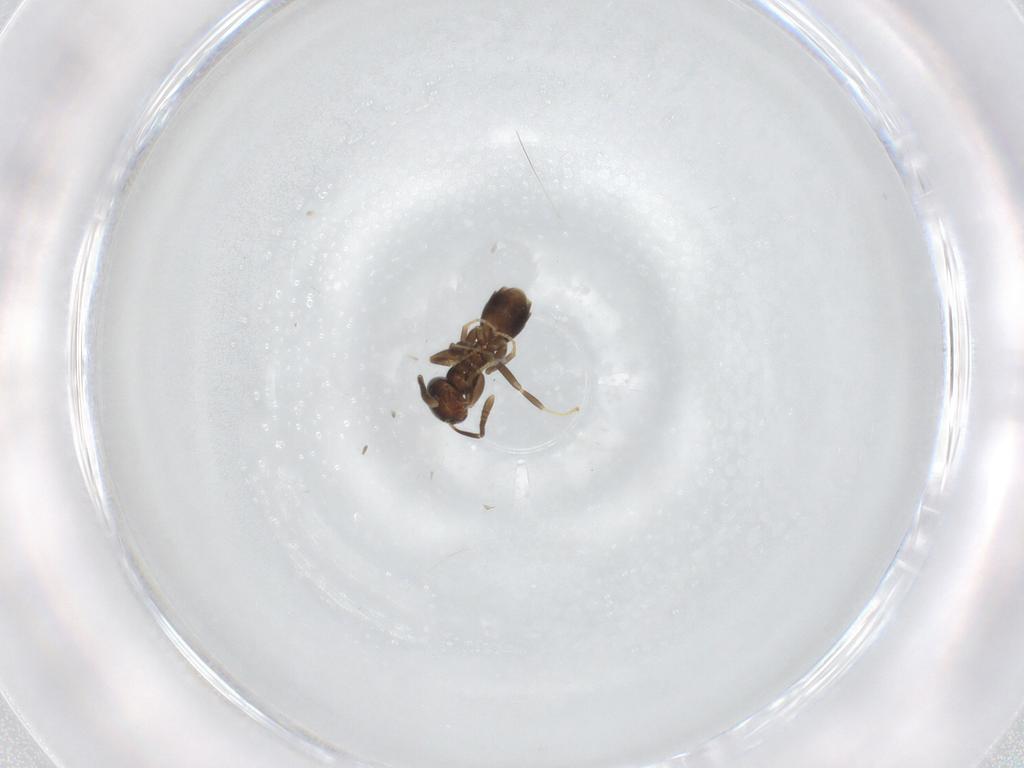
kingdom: Animalia
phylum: Arthropoda
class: Insecta
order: Hymenoptera
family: Formicidae
